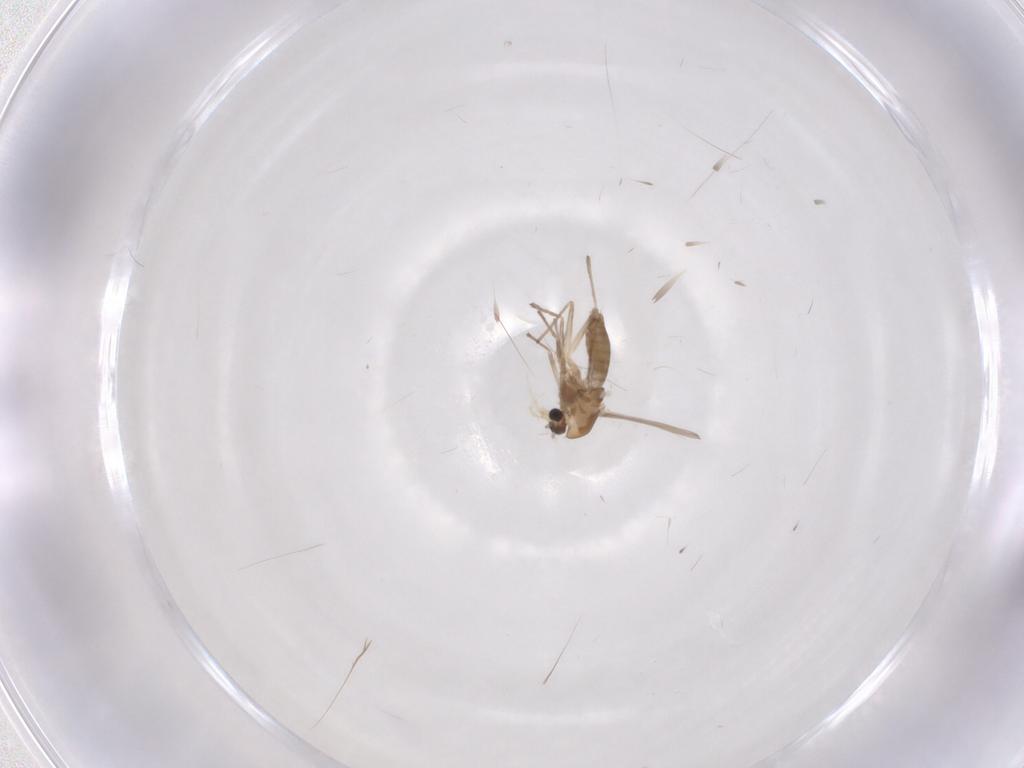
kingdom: Animalia
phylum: Arthropoda
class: Insecta
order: Diptera
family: Chironomidae
